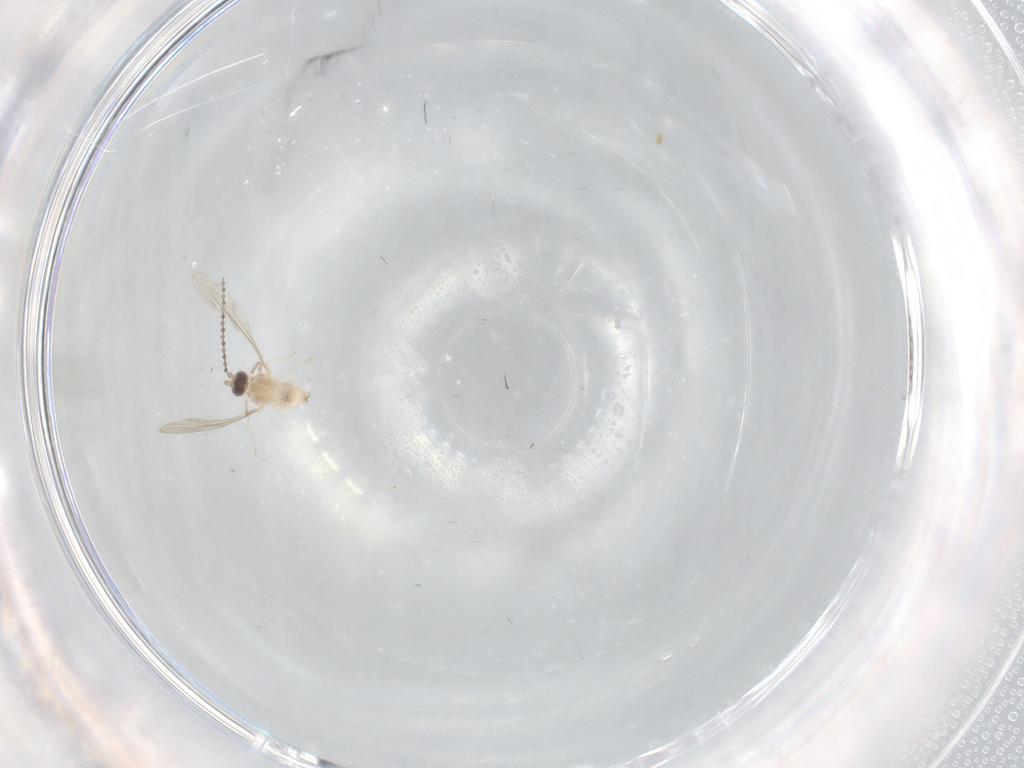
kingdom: Animalia
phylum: Arthropoda
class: Insecta
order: Diptera
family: Cecidomyiidae
